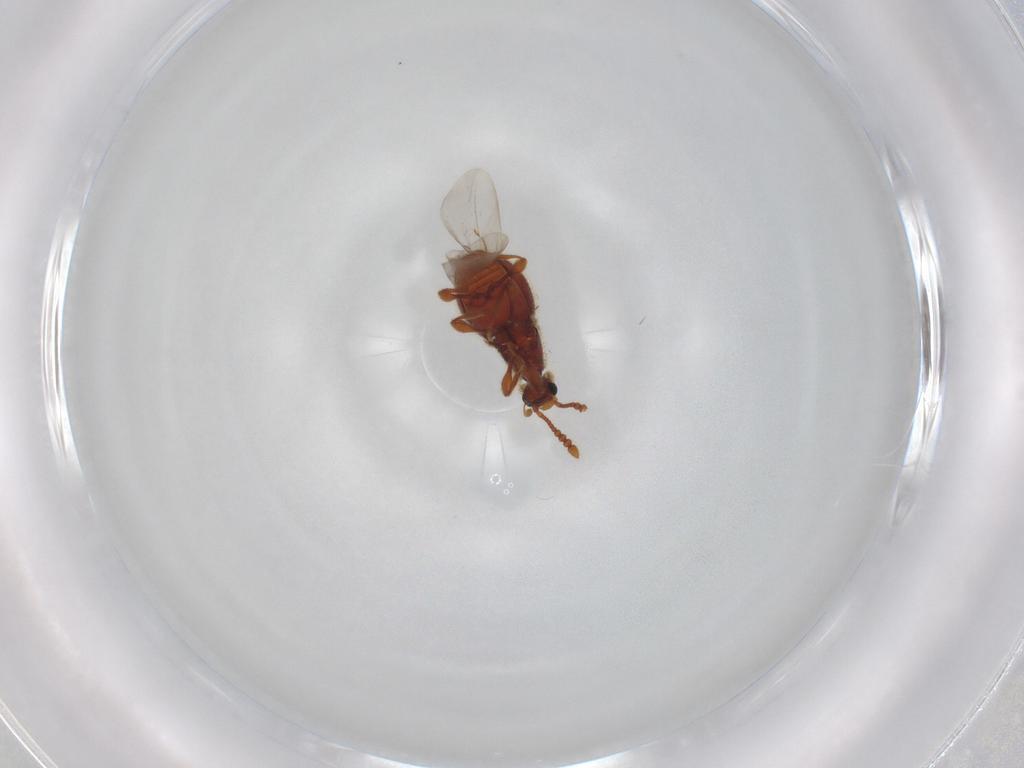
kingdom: Animalia
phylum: Arthropoda
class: Insecta
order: Coleoptera
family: Staphylinidae
